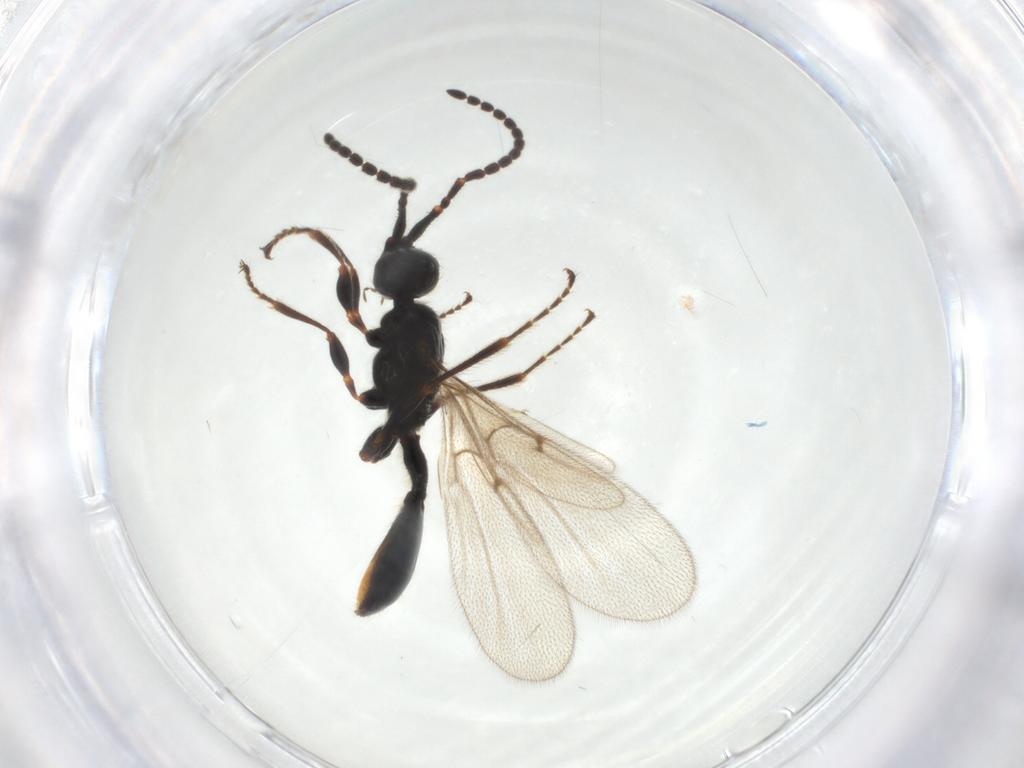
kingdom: Animalia
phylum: Arthropoda
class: Insecta
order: Hymenoptera
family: Diapriidae
